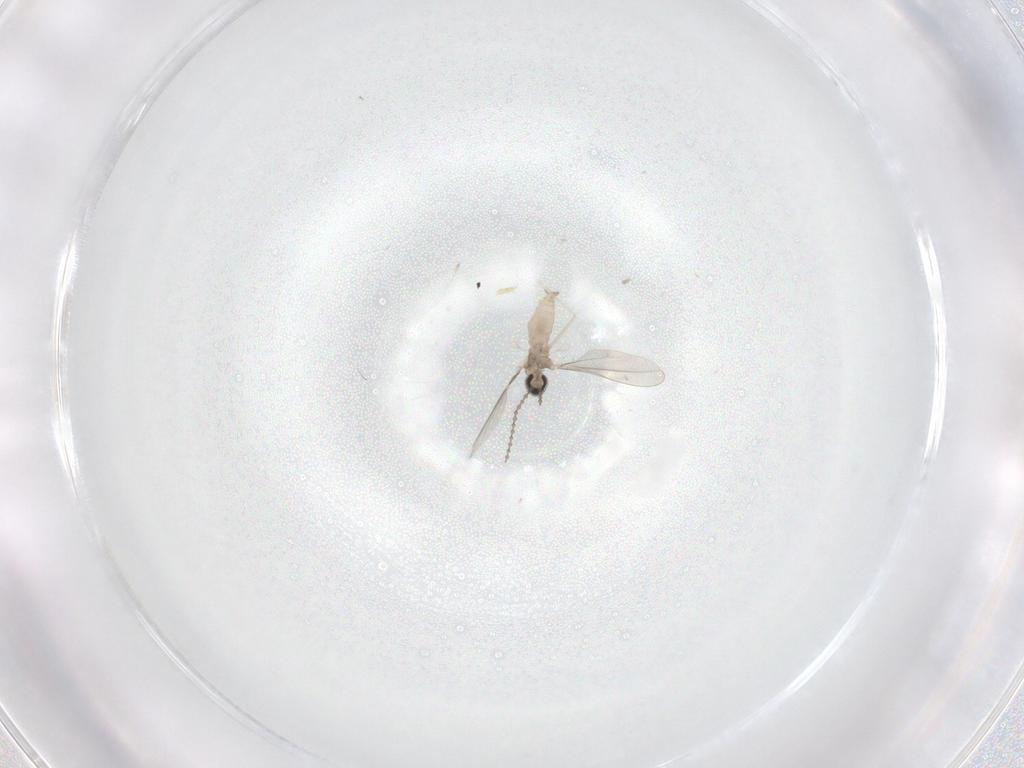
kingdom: Animalia
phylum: Arthropoda
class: Insecta
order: Diptera
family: Cecidomyiidae
